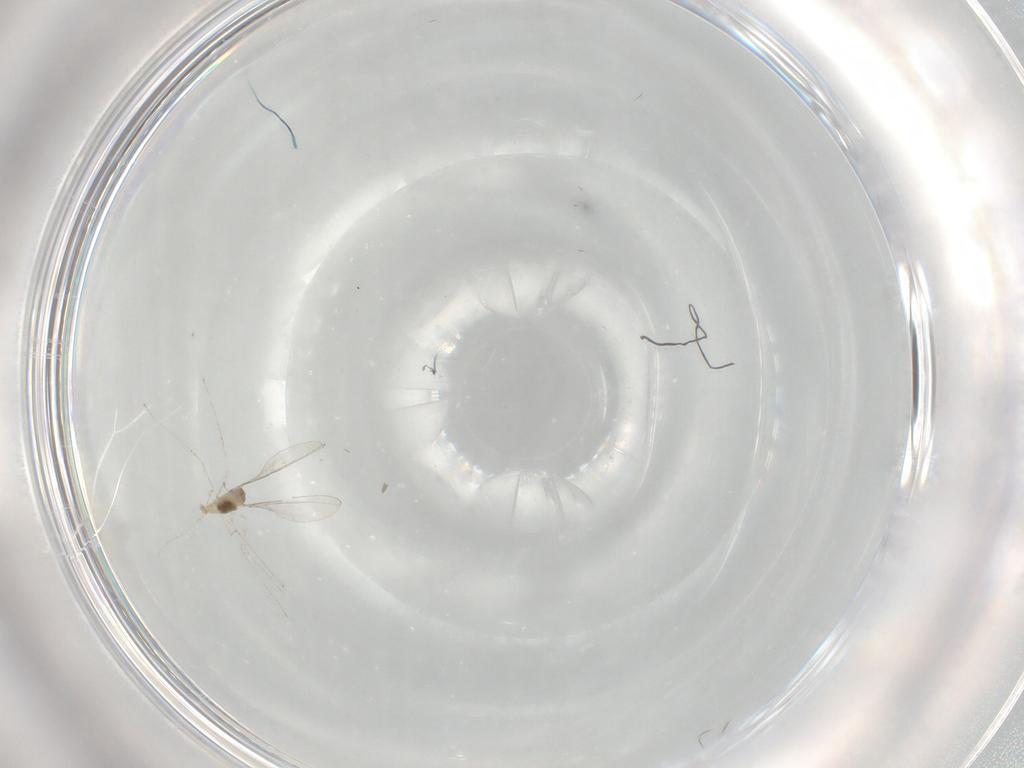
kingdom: Animalia
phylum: Arthropoda
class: Insecta
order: Diptera
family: Cecidomyiidae
